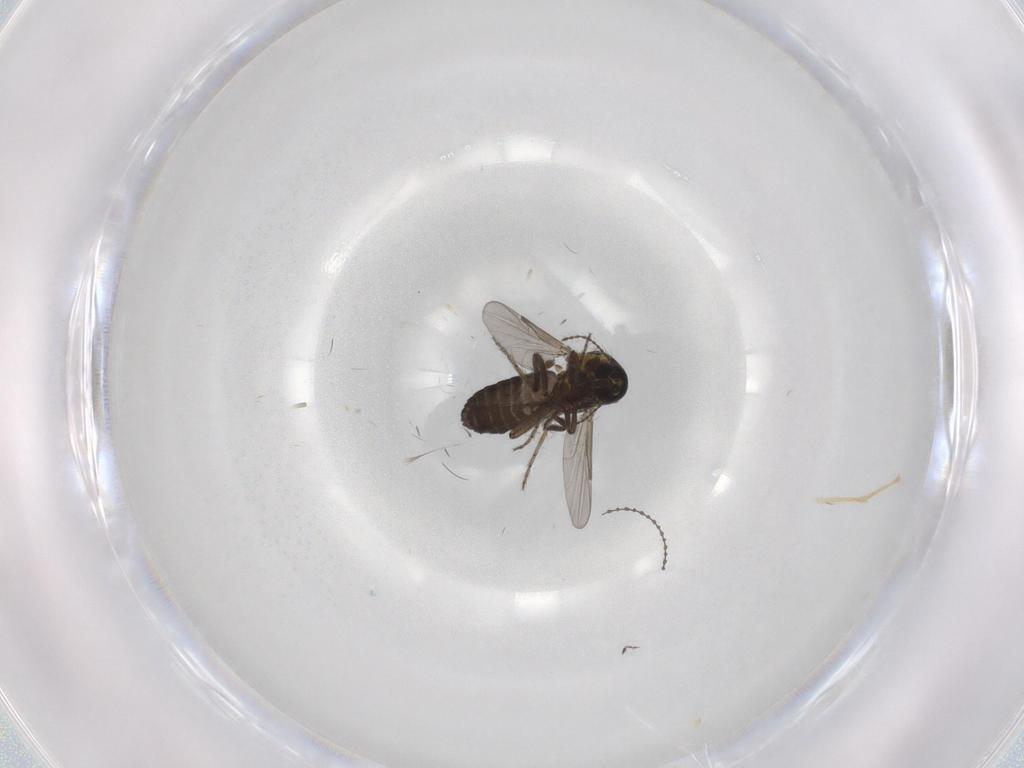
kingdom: Animalia
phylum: Arthropoda
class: Insecta
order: Diptera
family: Ceratopogonidae
